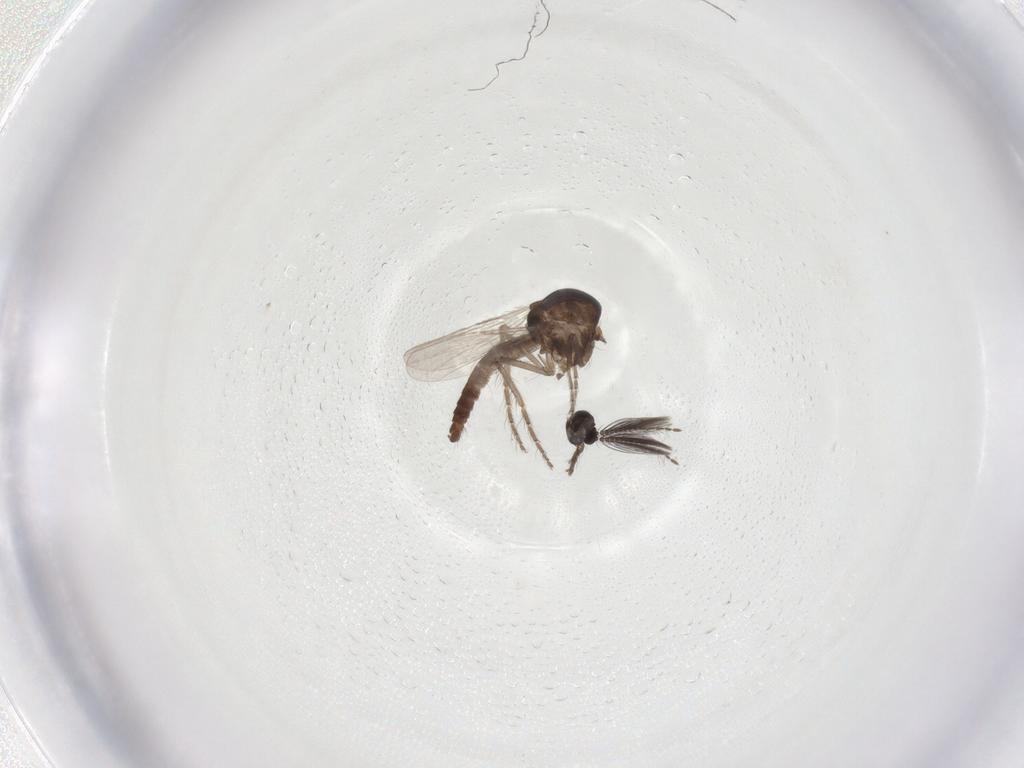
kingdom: Animalia
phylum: Arthropoda
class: Insecta
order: Diptera
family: Ceratopogonidae
